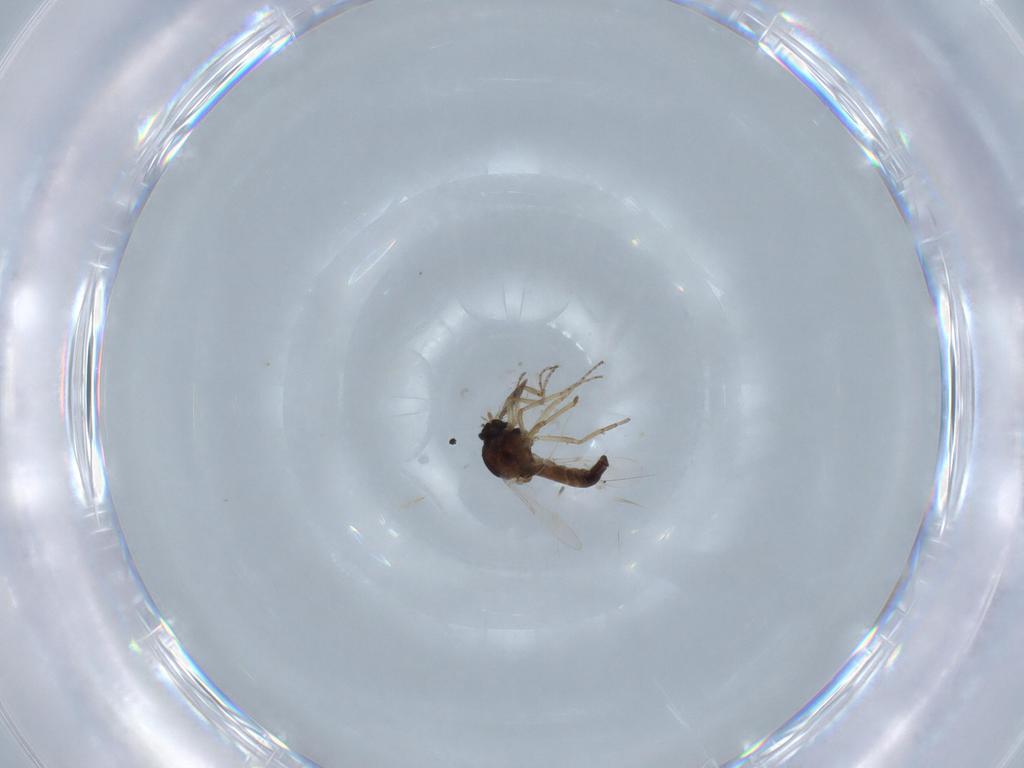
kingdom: Animalia
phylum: Arthropoda
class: Insecta
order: Diptera
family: Ceratopogonidae
